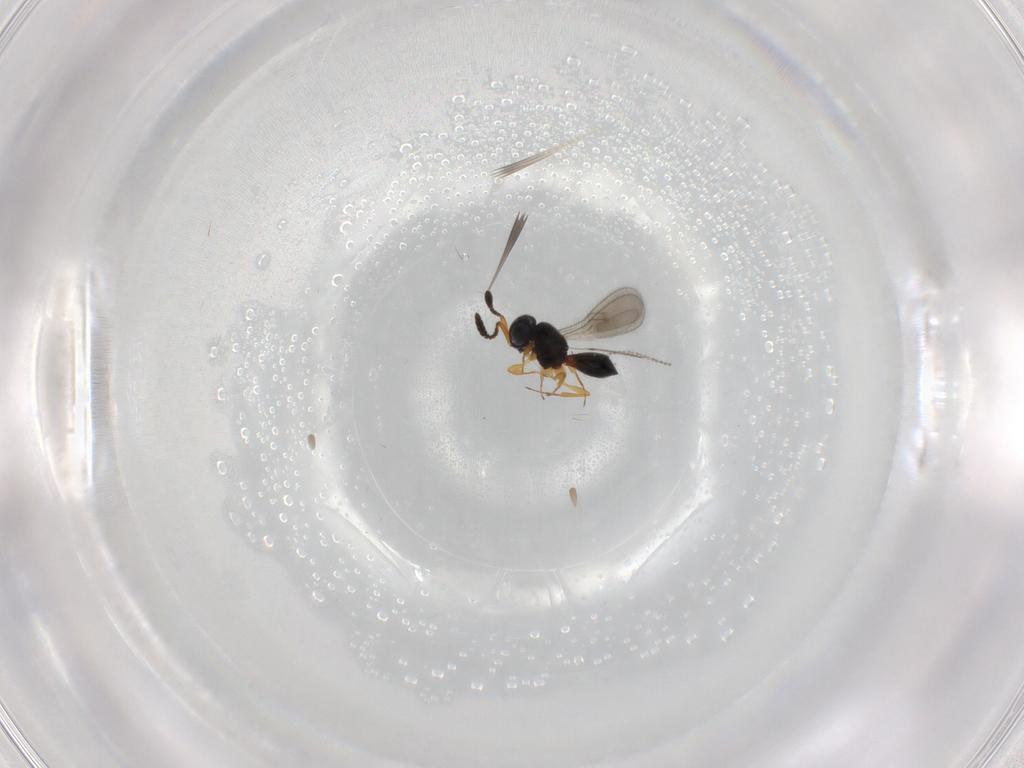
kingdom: Animalia
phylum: Arthropoda
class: Insecta
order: Hymenoptera
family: Scelionidae
